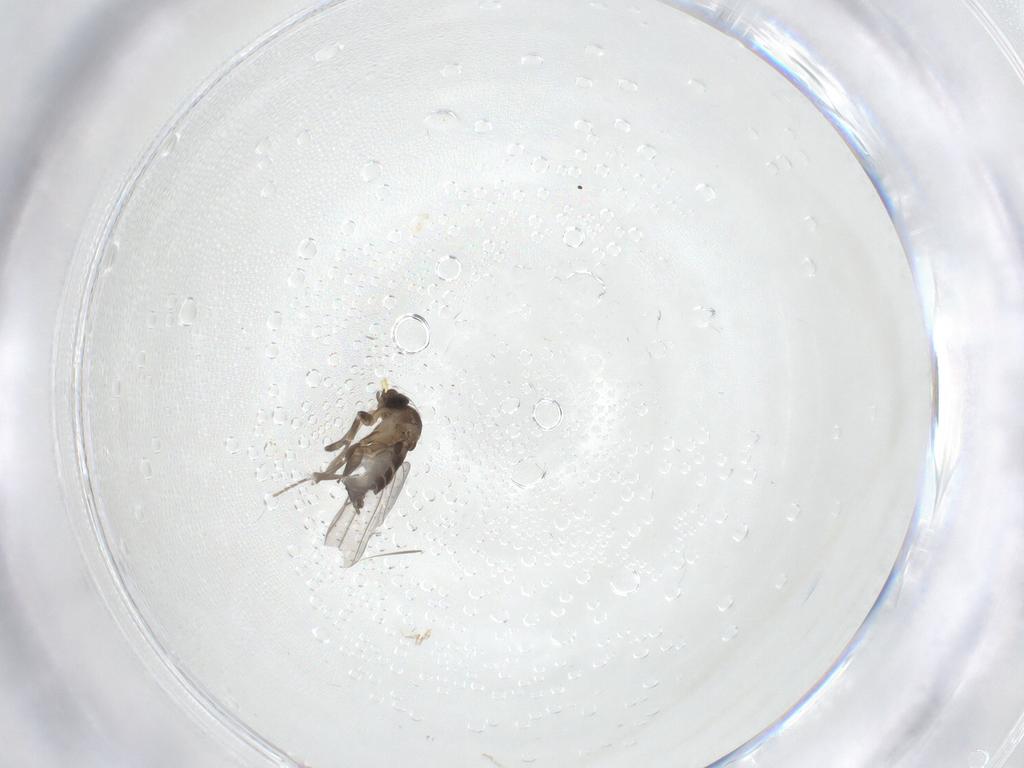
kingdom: Animalia
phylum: Arthropoda
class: Insecta
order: Diptera
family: Phoridae
